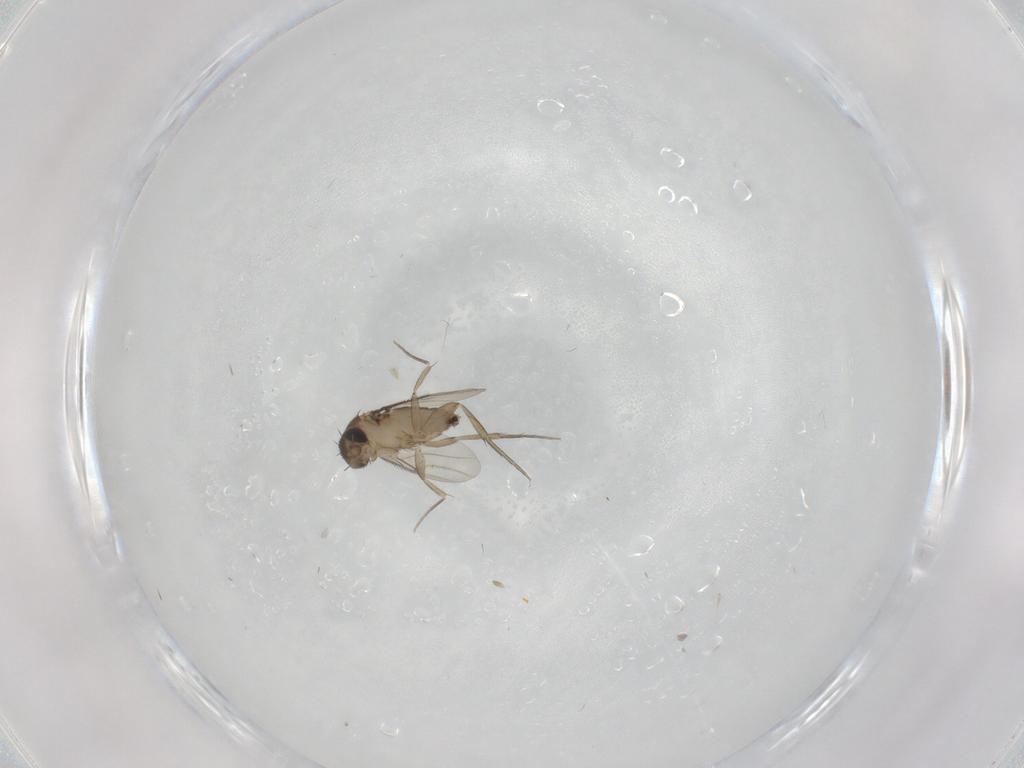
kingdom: Animalia
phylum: Arthropoda
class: Insecta
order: Diptera
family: Phoridae
